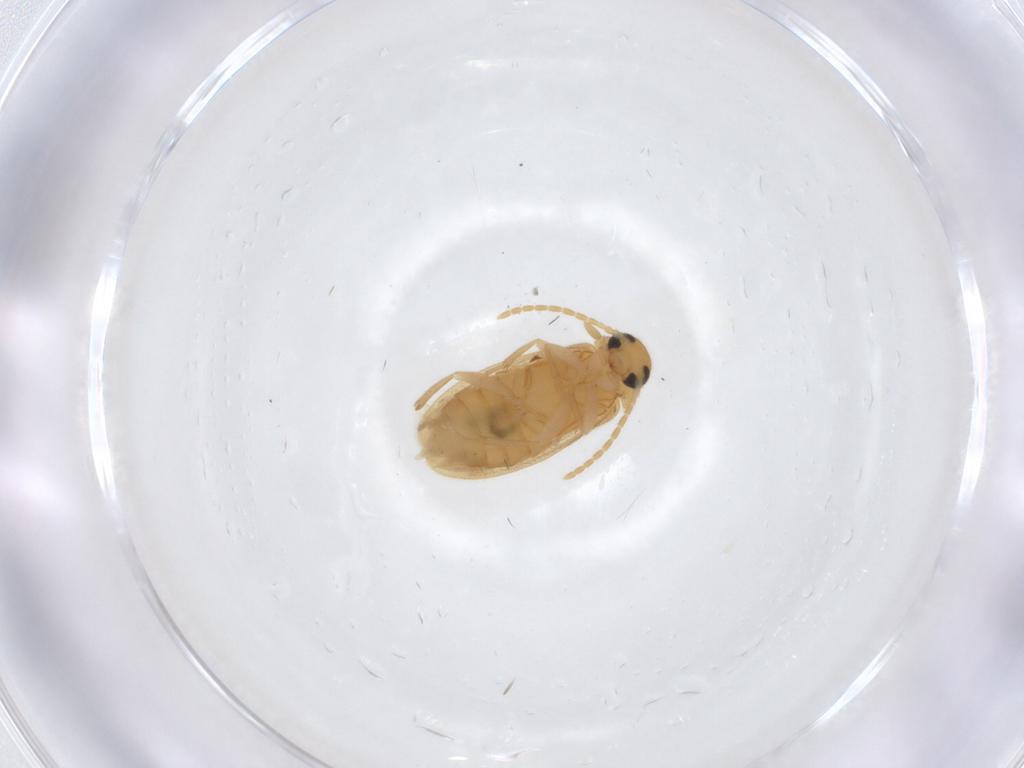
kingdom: Animalia
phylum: Arthropoda
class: Insecta
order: Coleoptera
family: Scraptiidae
